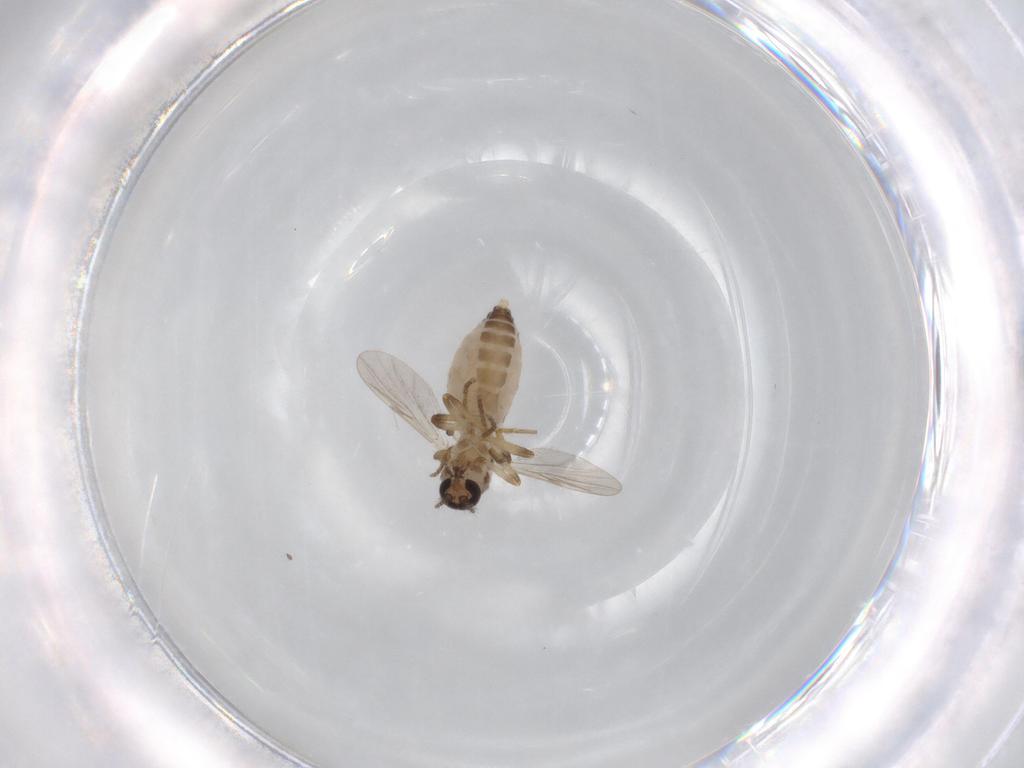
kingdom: Animalia
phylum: Arthropoda
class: Insecta
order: Diptera
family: Ceratopogonidae
